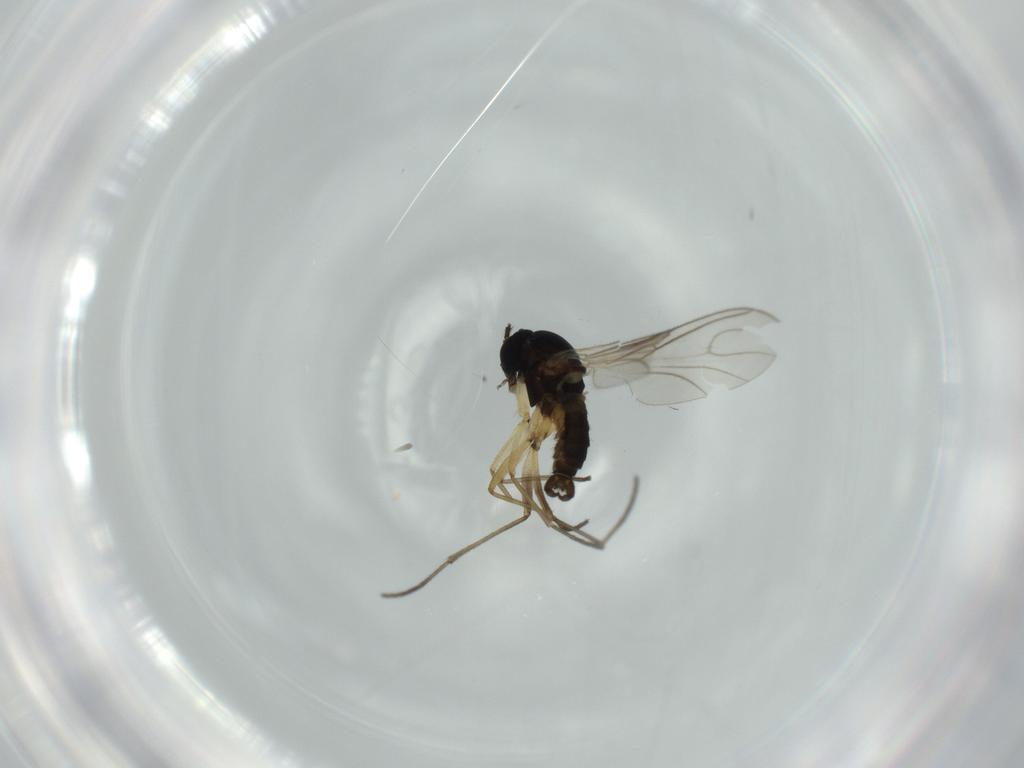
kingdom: Animalia
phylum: Arthropoda
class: Insecta
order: Diptera
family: Sciaridae
